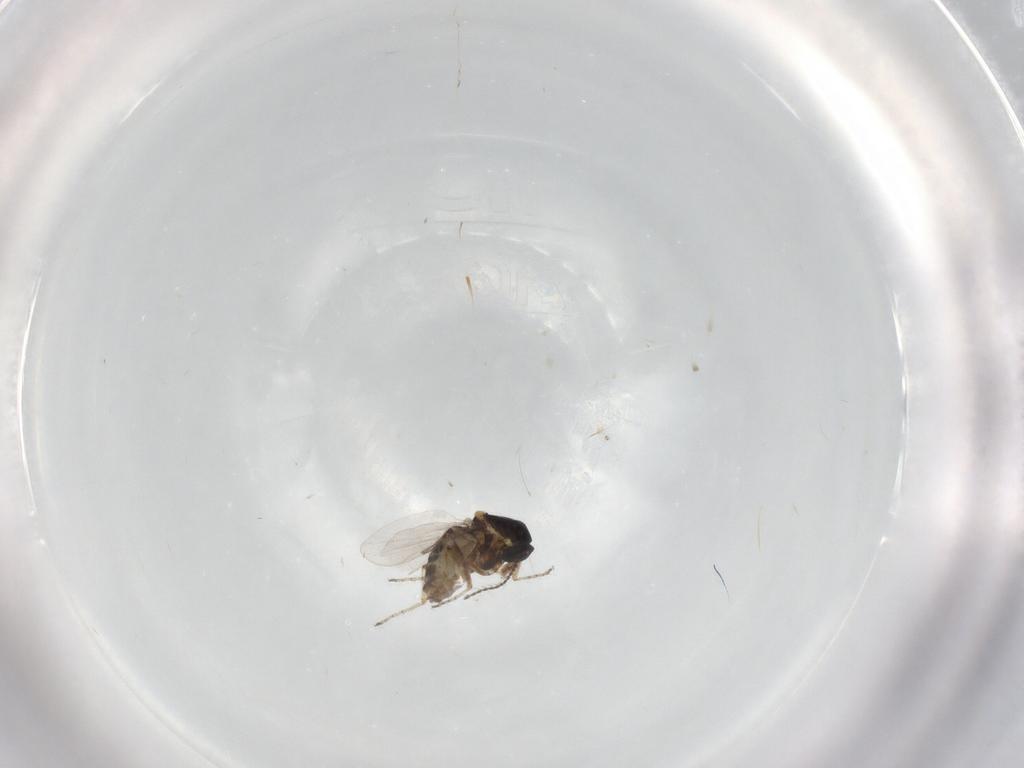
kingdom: Animalia
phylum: Arthropoda
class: Insecta
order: Diptera
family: Ceratopogonidae
